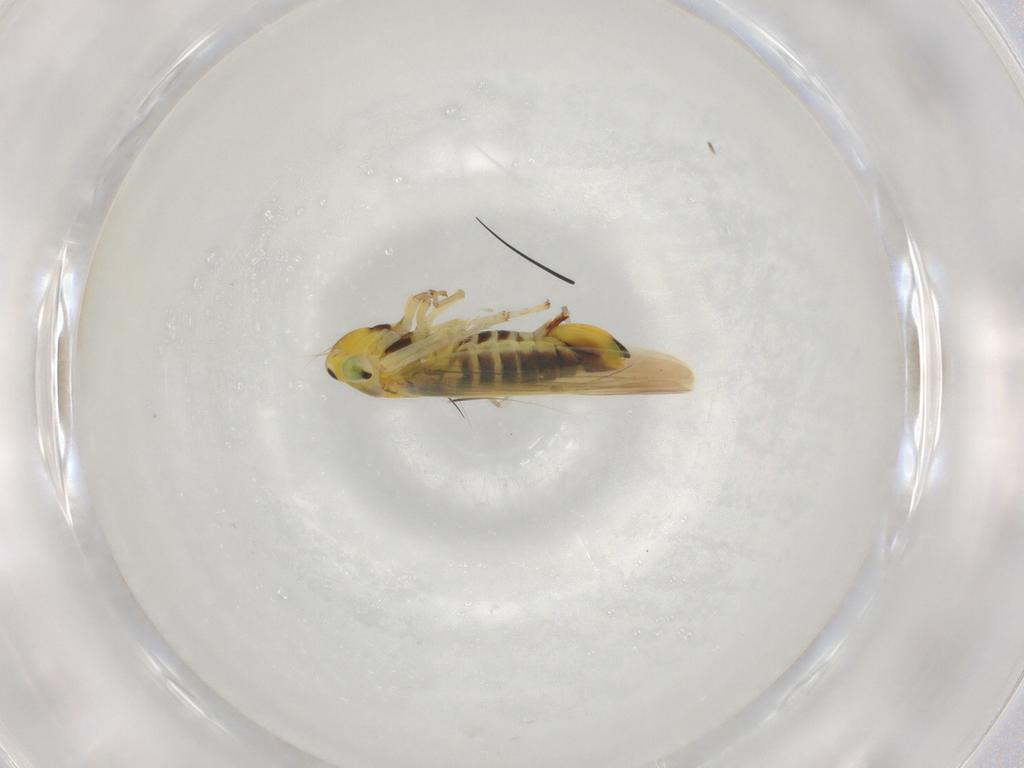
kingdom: Animalia
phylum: Arthropoda
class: Insecta
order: Hemiptera
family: Cicadellidae
